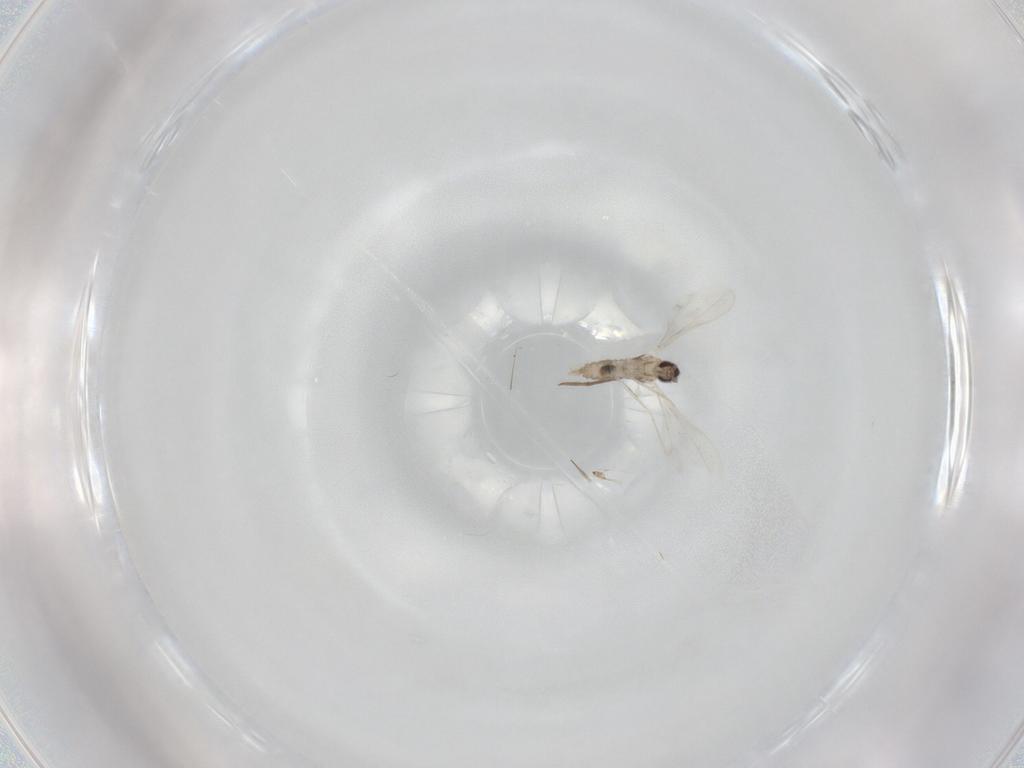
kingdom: Animalia
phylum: Arthropoda
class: Insecta
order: Diptera
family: Cecidomyiidae
